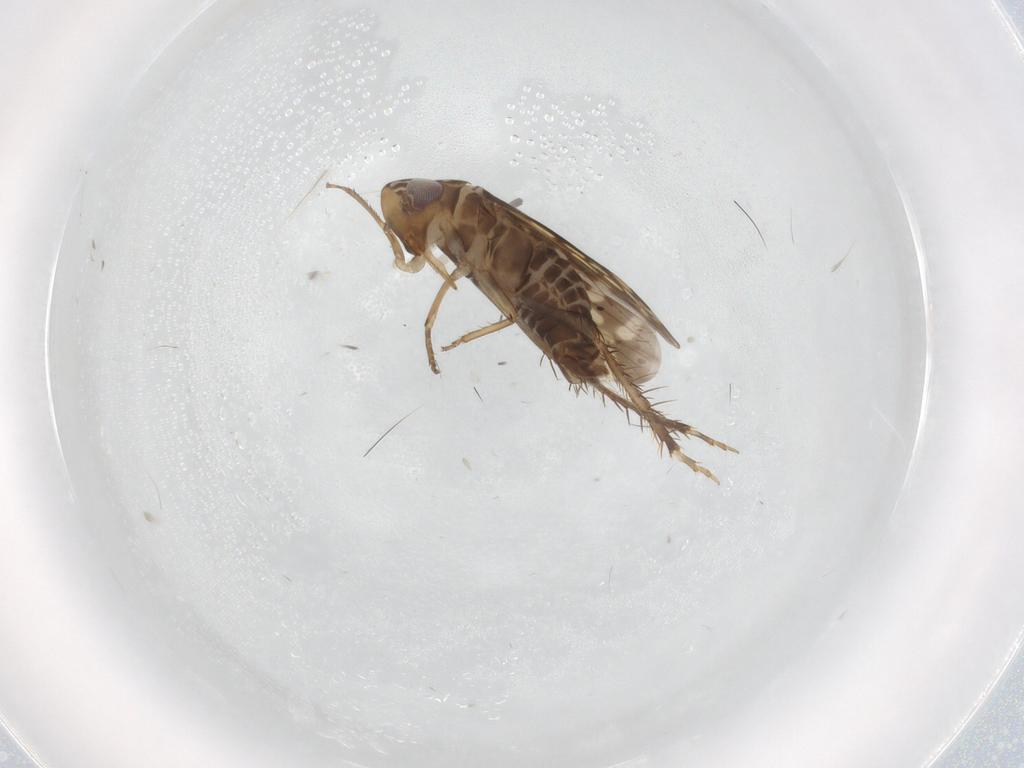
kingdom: Animalia
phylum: Arthropoda
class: Insecta
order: Hemiptera
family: Cicadellidae
